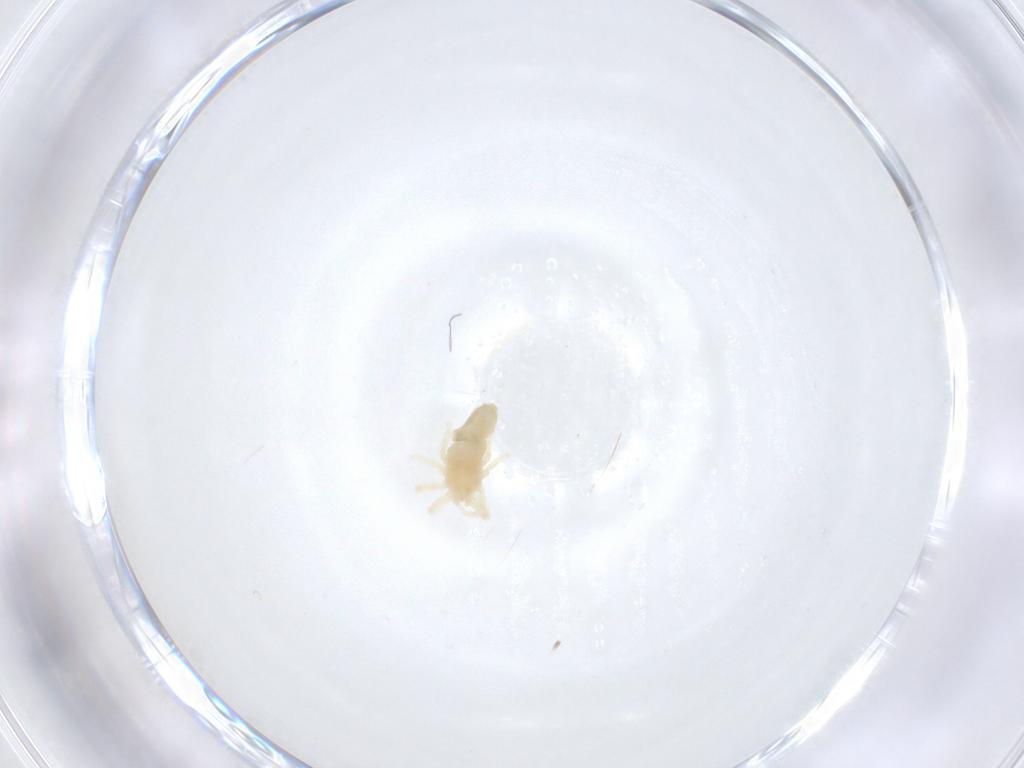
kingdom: Animalia
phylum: Arthropoda
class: Arachnida
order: Trombidiformes
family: Anystidae
